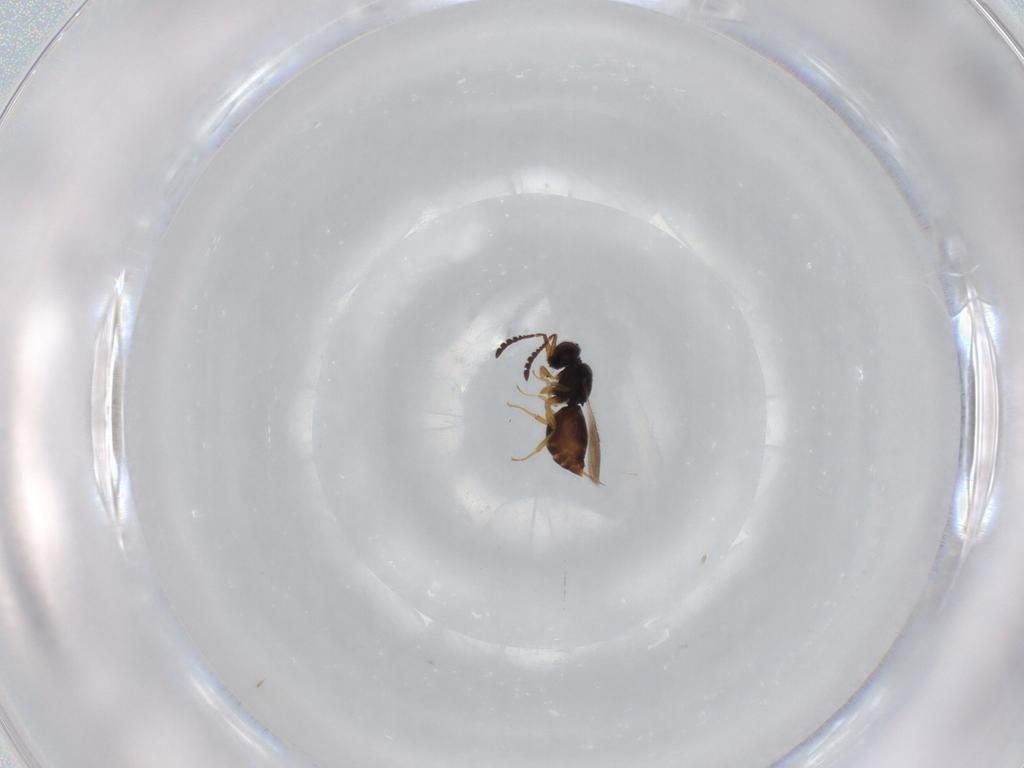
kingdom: Animalia
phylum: Arthropoda
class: Insecta
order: Hymenoptera
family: Ceraphronidae
